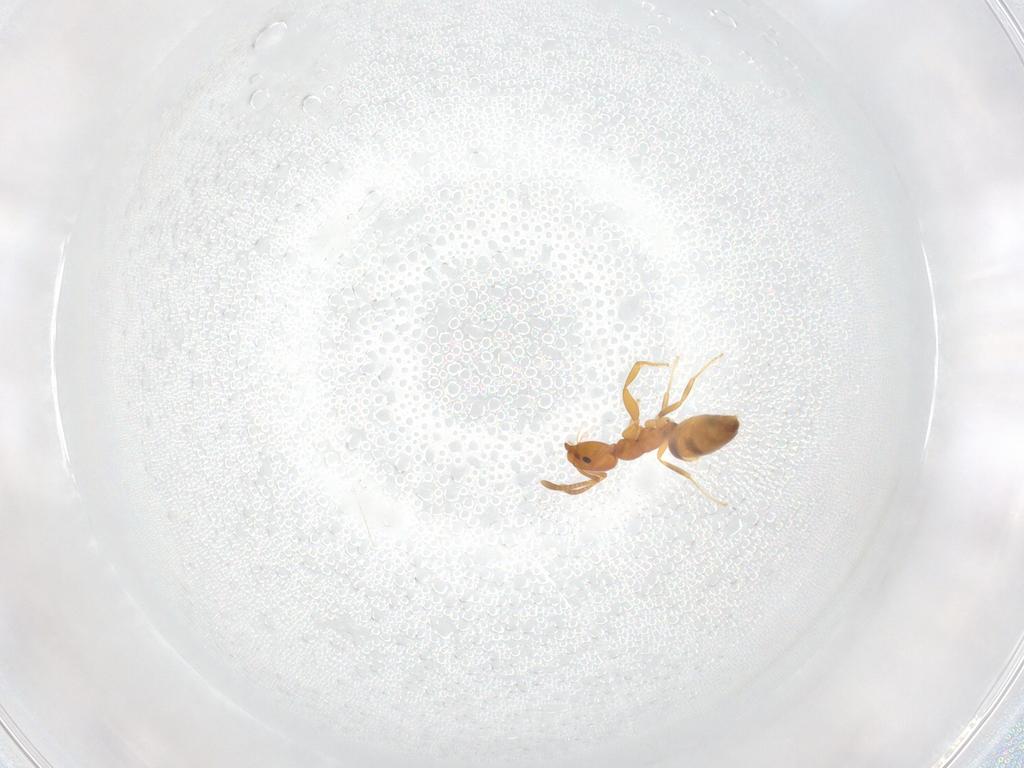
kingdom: Animalia
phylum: Arthropoda
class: Insecta
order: Hymenoptera
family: Formicidae
